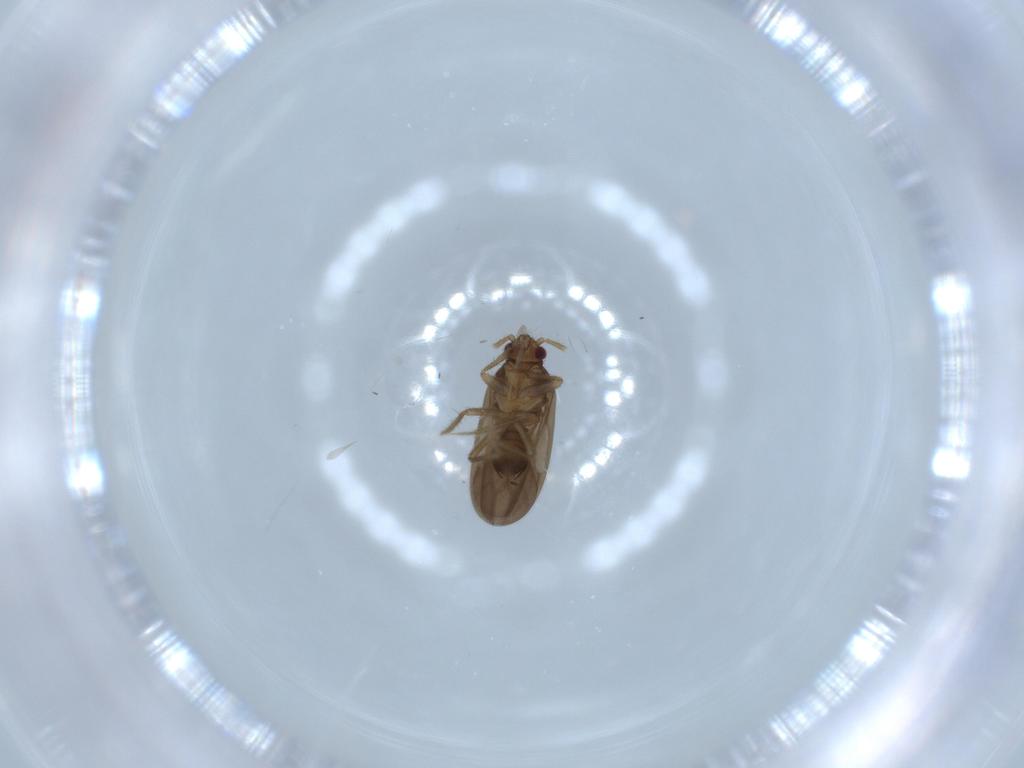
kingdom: Animalia
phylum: Arthropoda
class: Insecta
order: Hemiptera
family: Ceratocombidae
